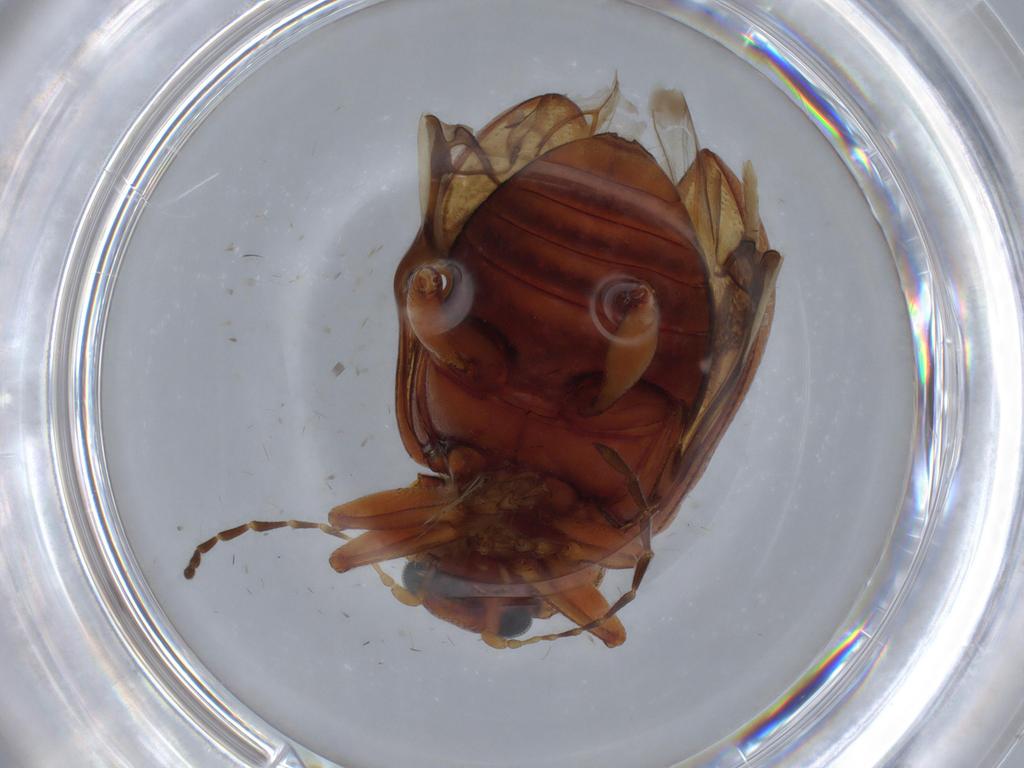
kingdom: Animalia
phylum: Arthropoda
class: Insecta
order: Coleoptera
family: Chrysomelidae
